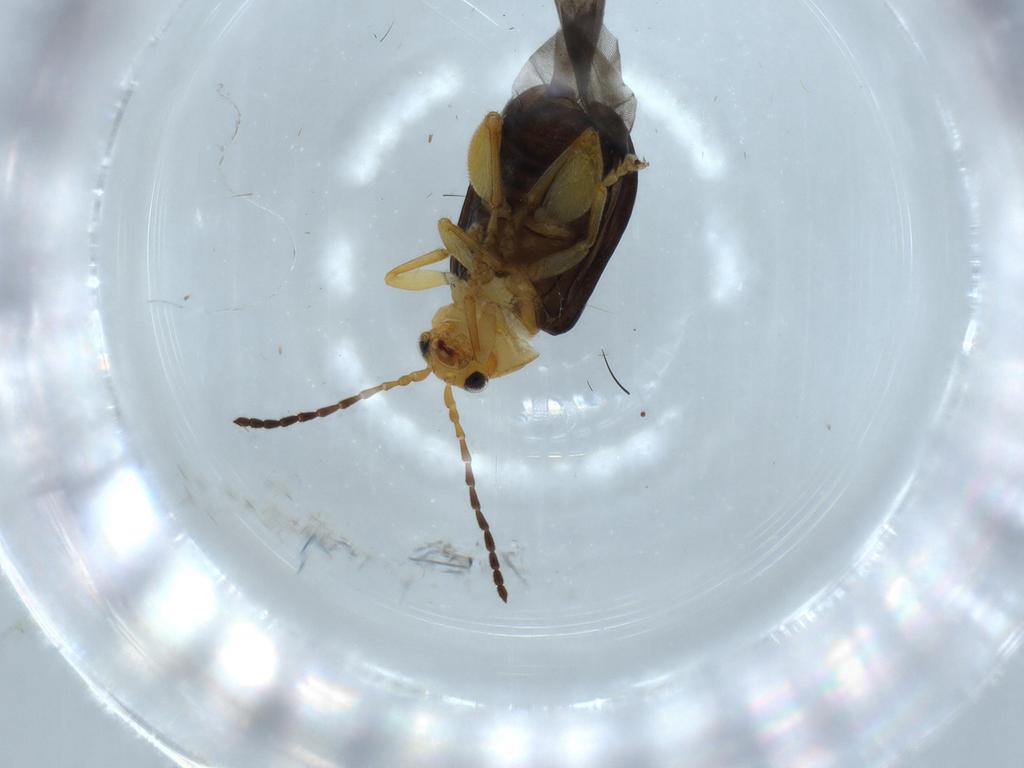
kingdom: Animalia
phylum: Arthropoda
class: Insecta
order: Coleoptera
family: Chrysomelidae
